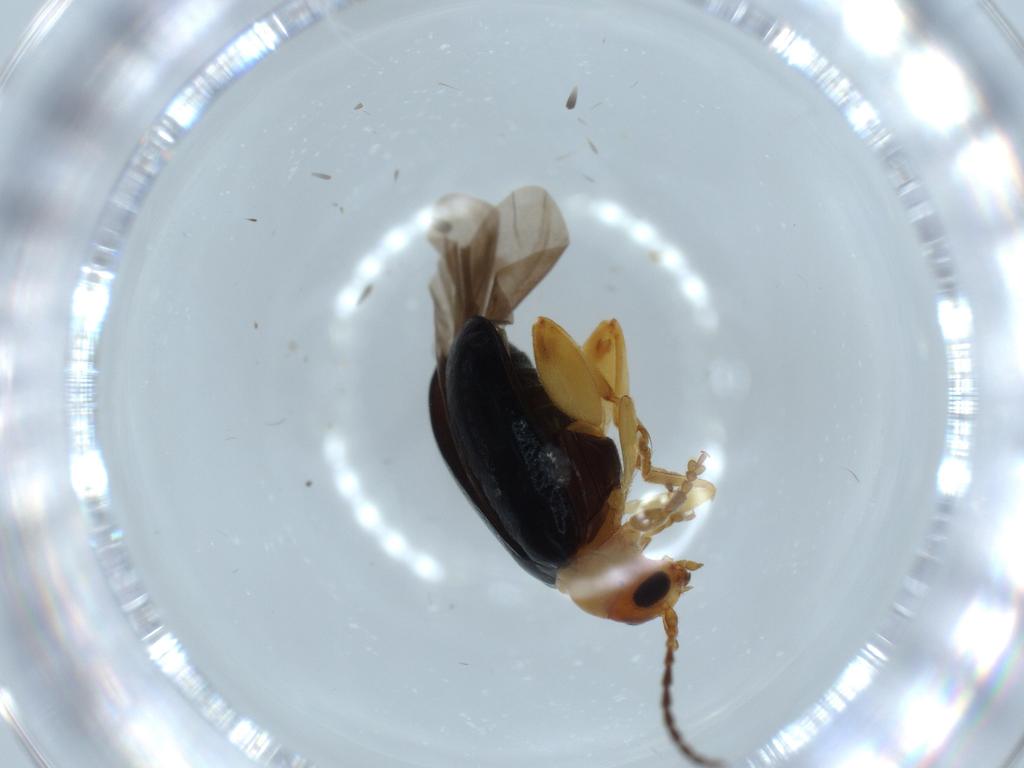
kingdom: Animalia
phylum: Arthropoda
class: Insecta
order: Coleoptera
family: Chrysomelidae
